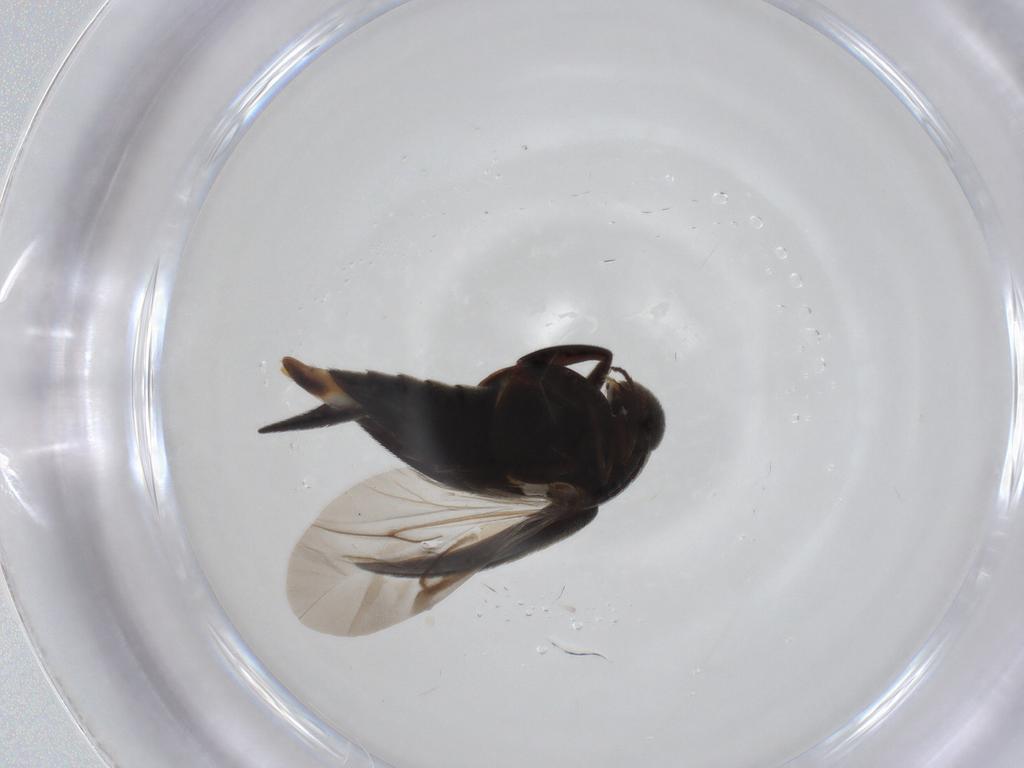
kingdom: Animalia
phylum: Arthropoda
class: Insecta
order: Coleoptera
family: Mordellidae
